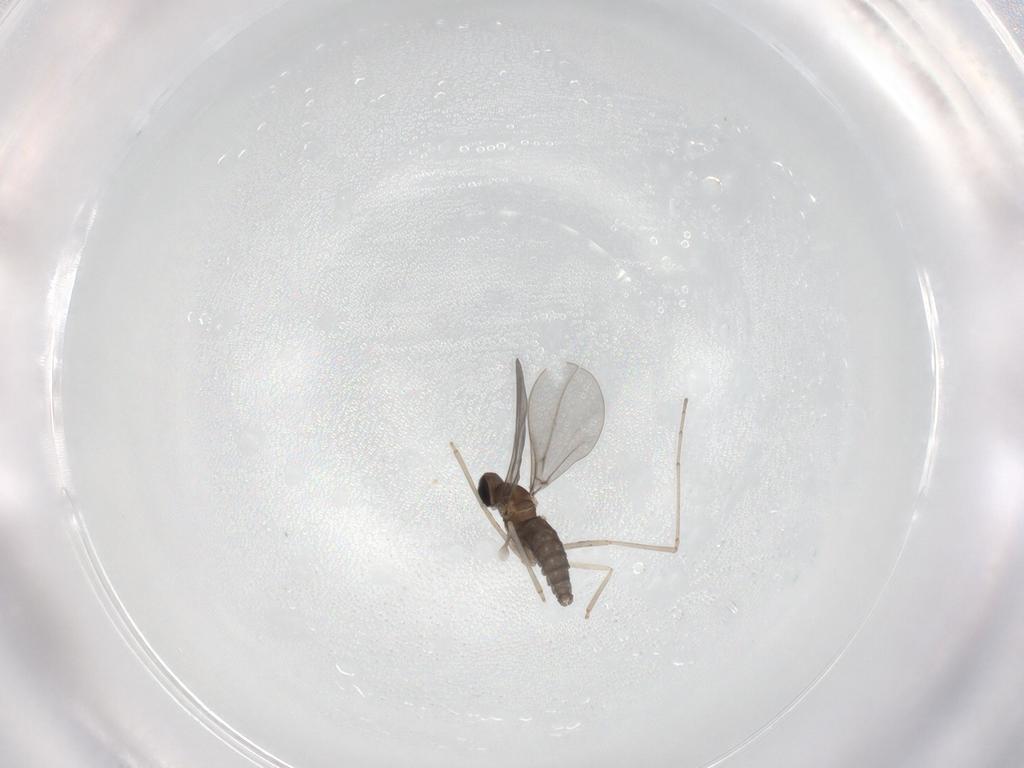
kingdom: Animalia
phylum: Arthropoda
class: Insecta
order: Diptera
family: Cecidomyiidae
